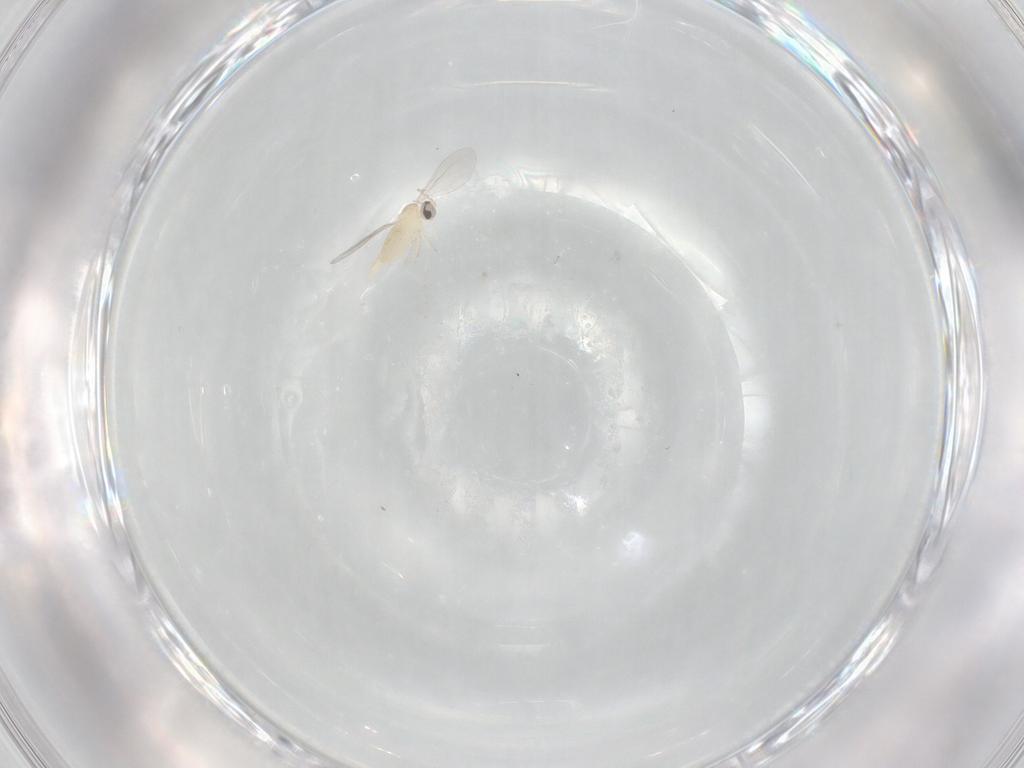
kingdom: Animalia
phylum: Arthropoda
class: Insecta
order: Diptera
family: Cecidomyiidae
